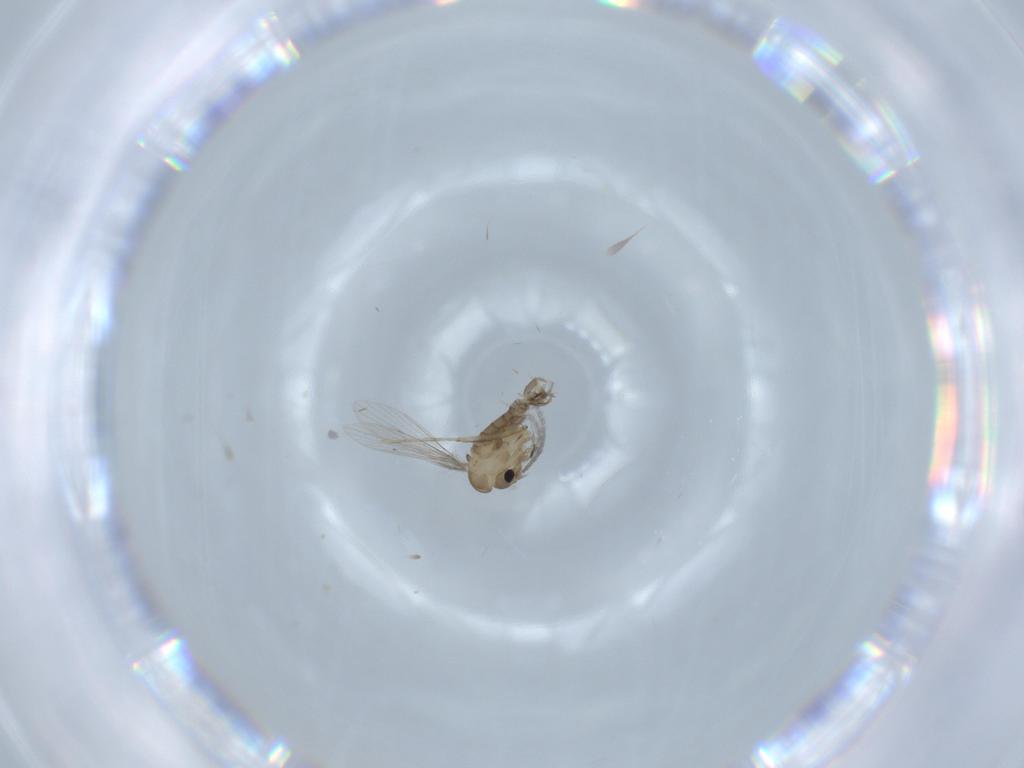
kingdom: Animalia
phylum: Arthropoda
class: Insecta
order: Diptera
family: Psychodidae
